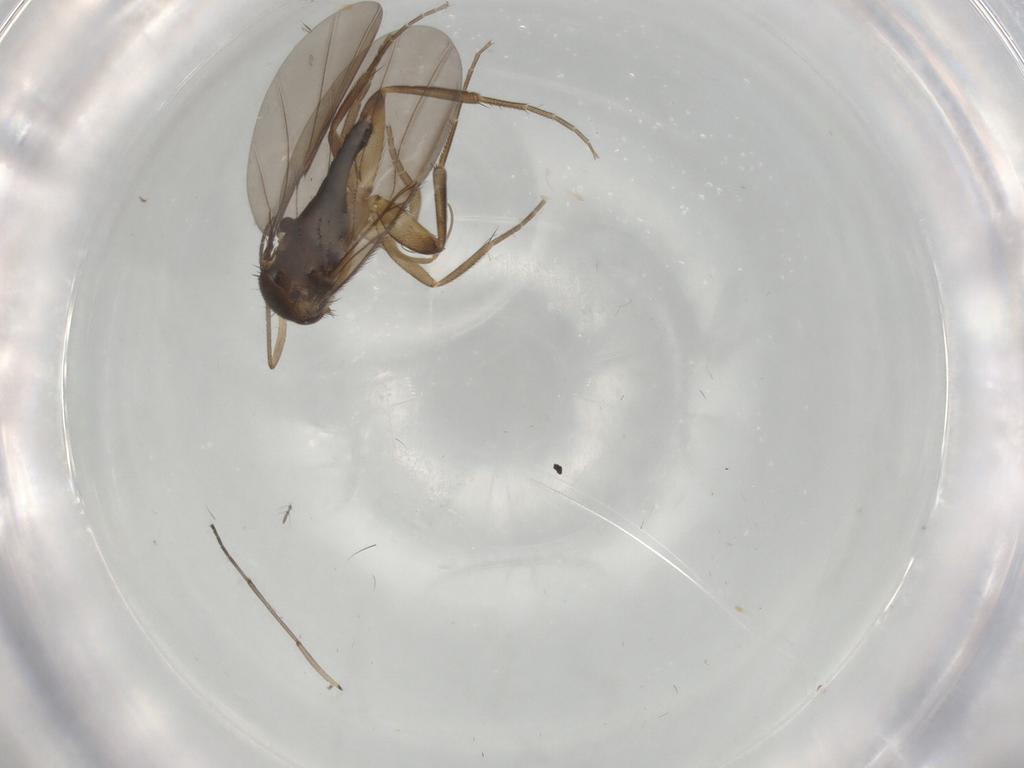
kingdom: Animalia
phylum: Arthropoda
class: Insecta
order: Diptera
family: Phoridae
